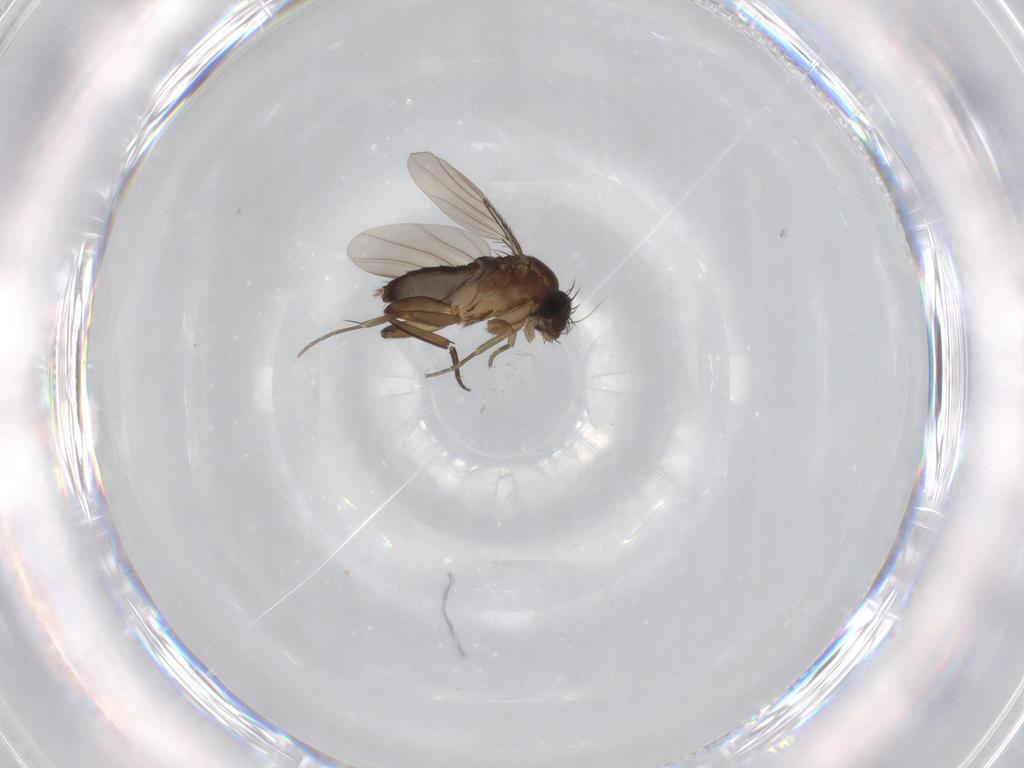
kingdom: Animalia
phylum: Arthropoda
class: Insecta
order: Diptera
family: Phoridae
